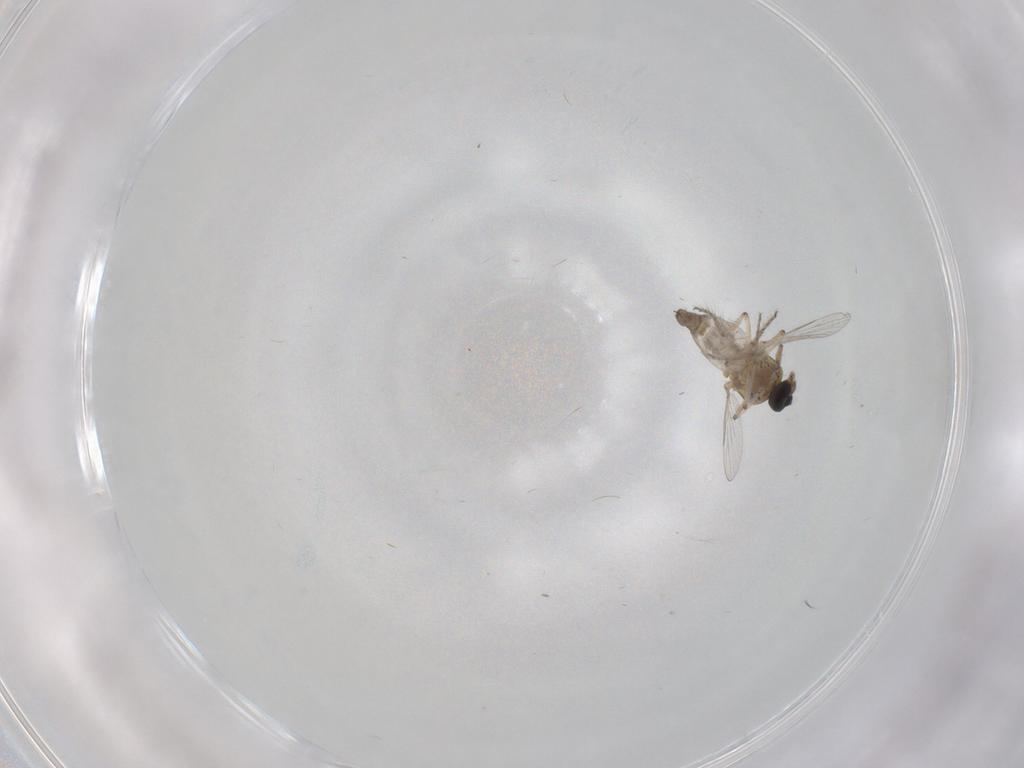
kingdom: Animalia
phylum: Arthropoda
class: Insecta
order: Diptera
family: Ceratopogonidae
